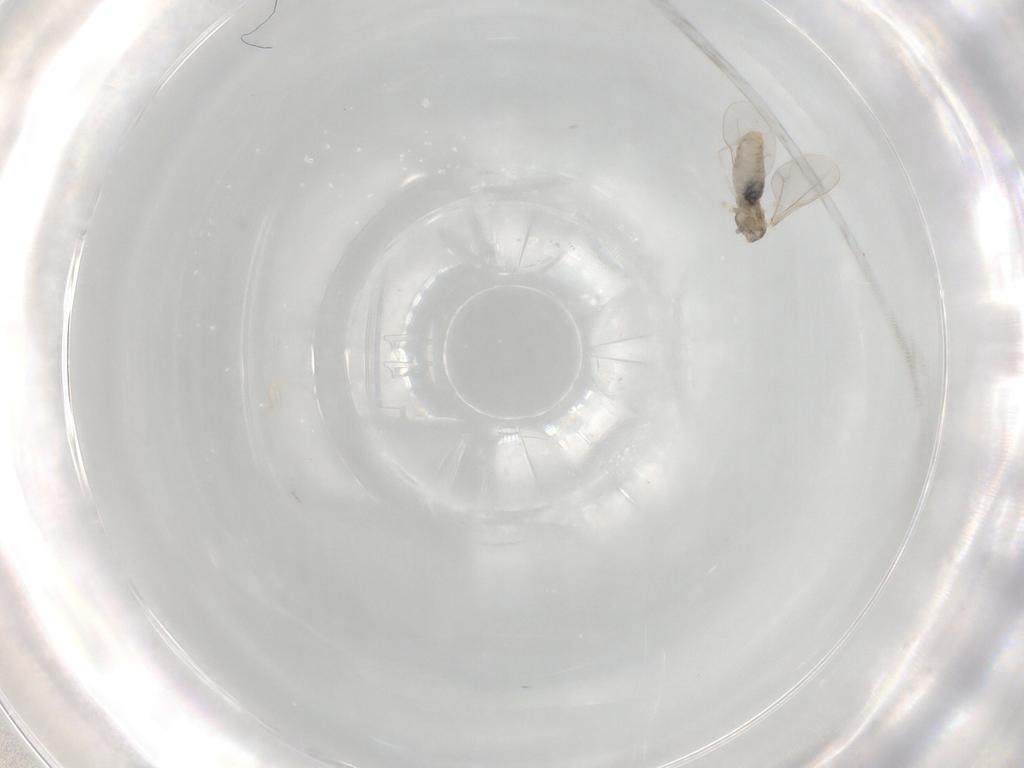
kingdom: Animalia
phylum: Arthropoda
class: Insecta
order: Diptera
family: Cecidomyiidae
